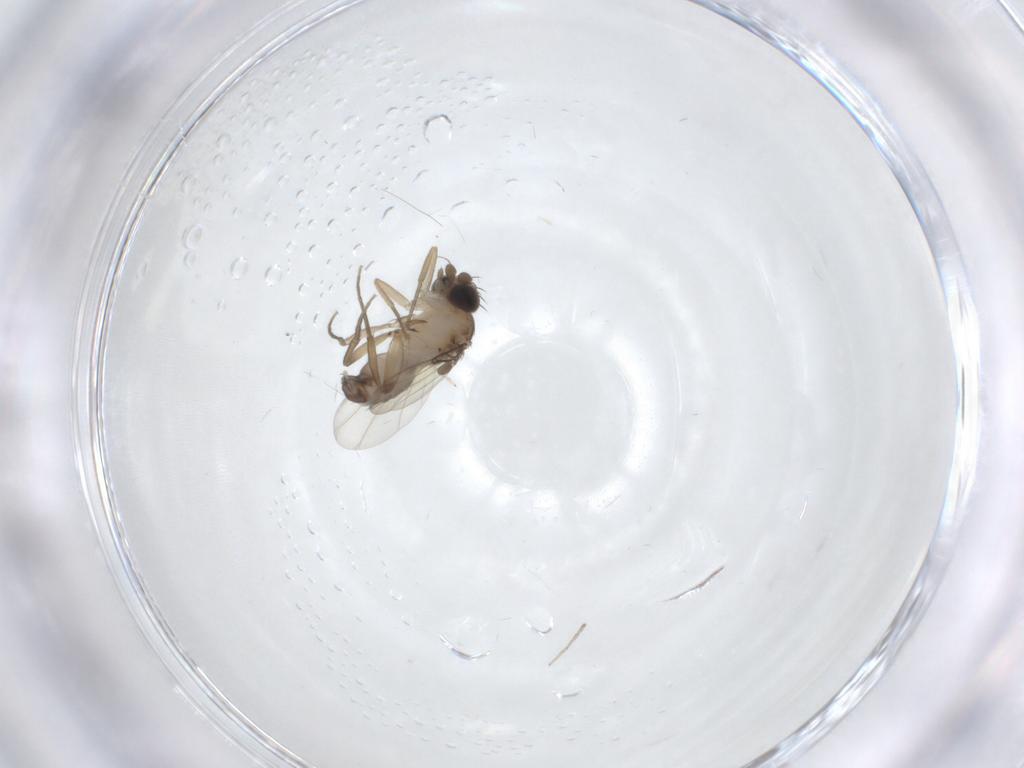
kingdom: Animalia
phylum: Arthropoda
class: Insecta
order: Diptera
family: Phoridae
